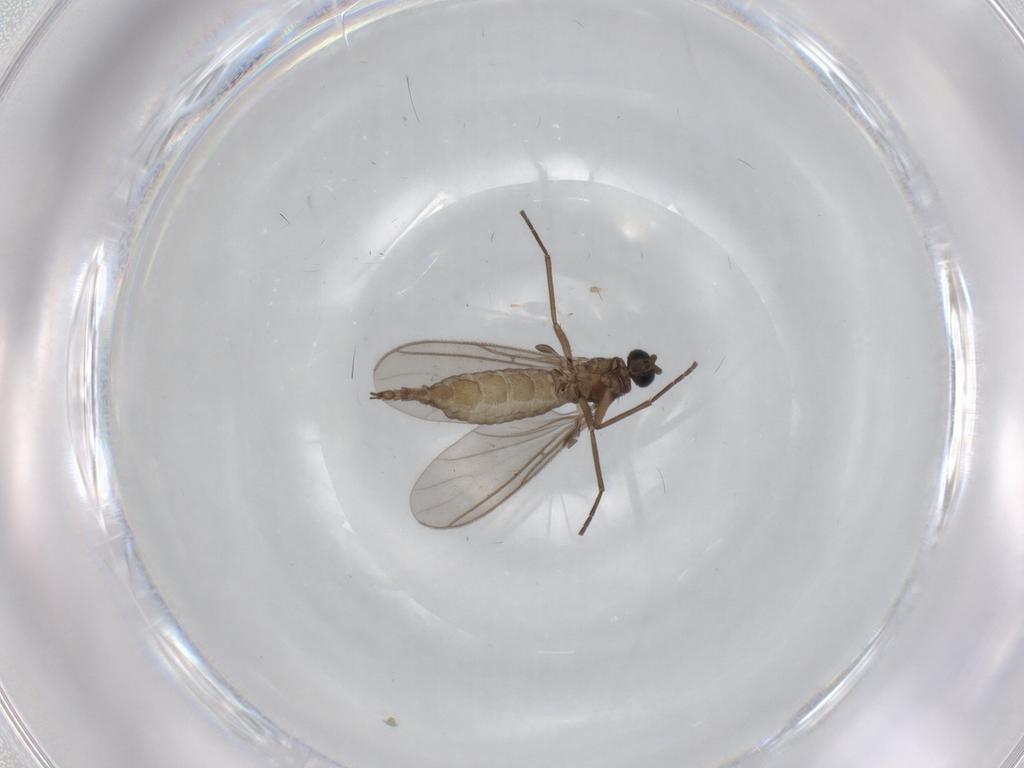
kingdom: Animalia
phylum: Arthropoda
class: Insecta
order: Diptera
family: Sciaridae
